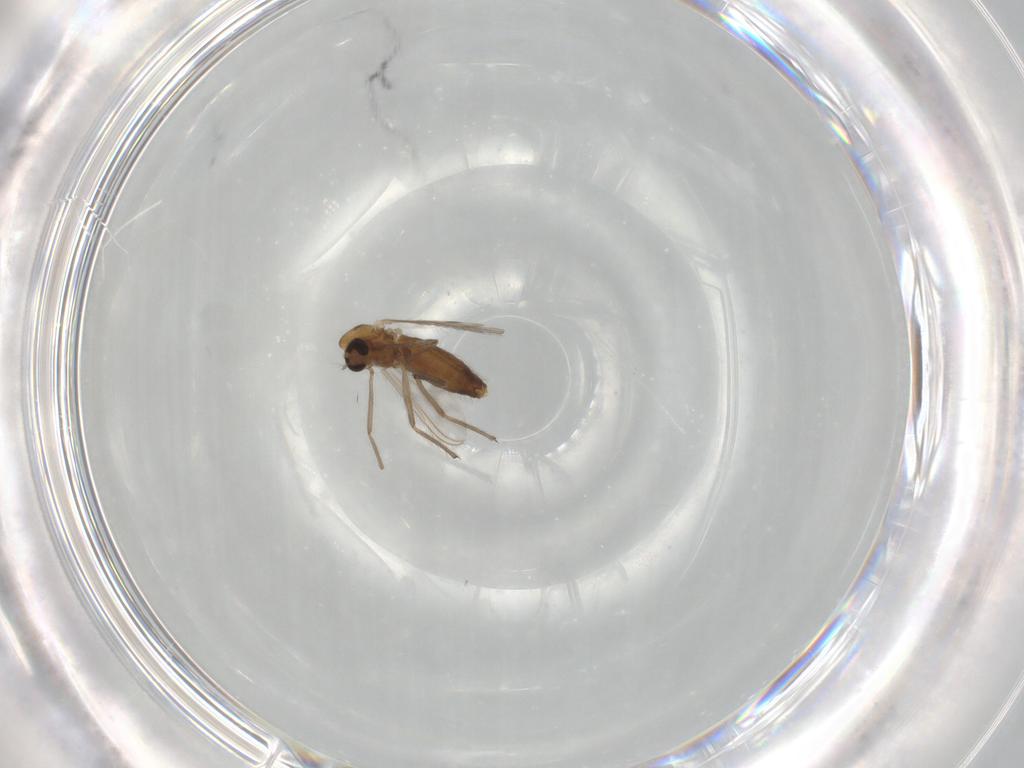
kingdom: Animalia
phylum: Arthropoda
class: Insecta
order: Diptera
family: Chironomidae
